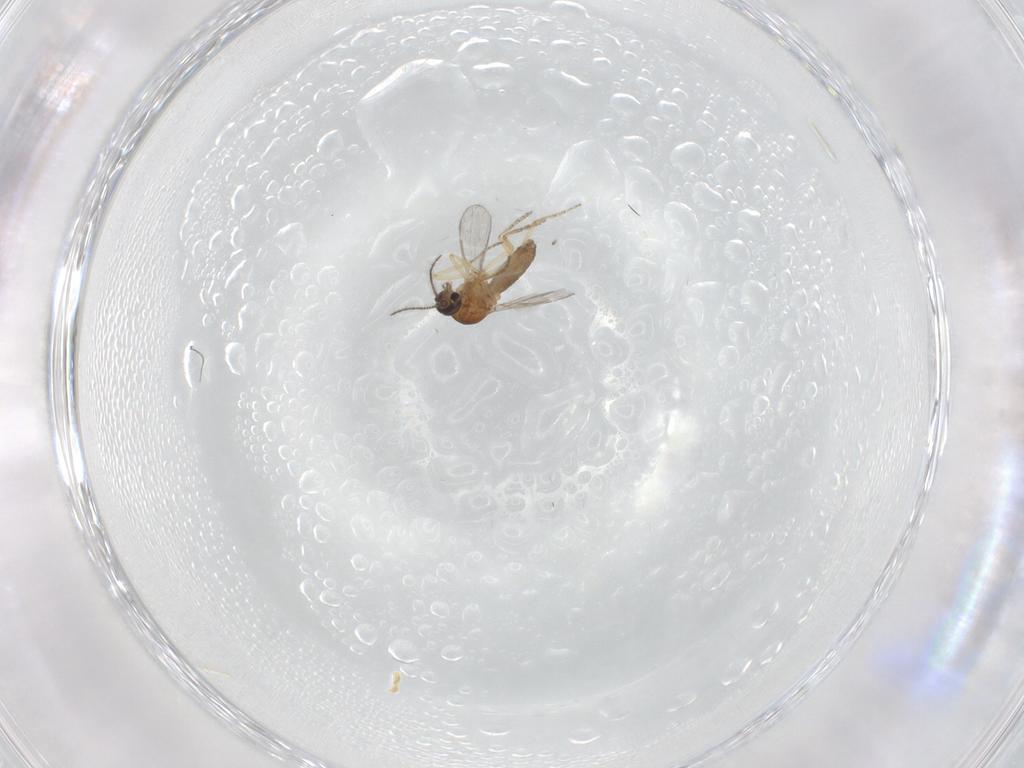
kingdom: Animalia
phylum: Arthropoda
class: Insecta
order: Diptera
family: Ceratopogonidae
